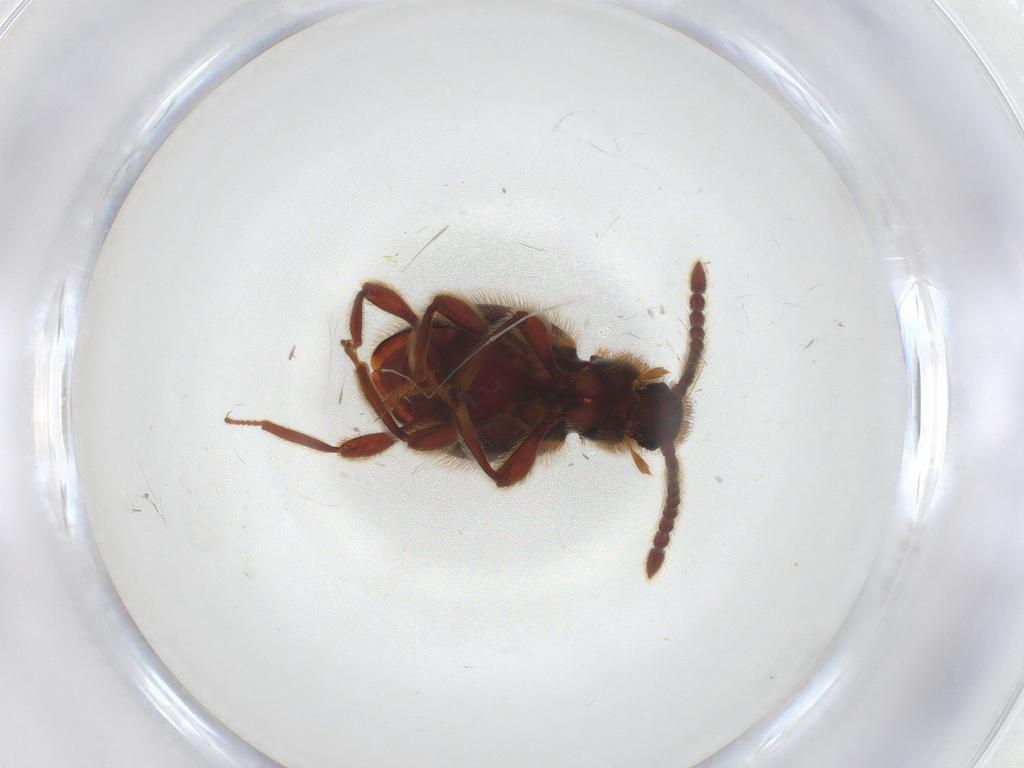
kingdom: Animalia
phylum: Arthropoda
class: Insecta
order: Coleoptera
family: Staphylinidae
